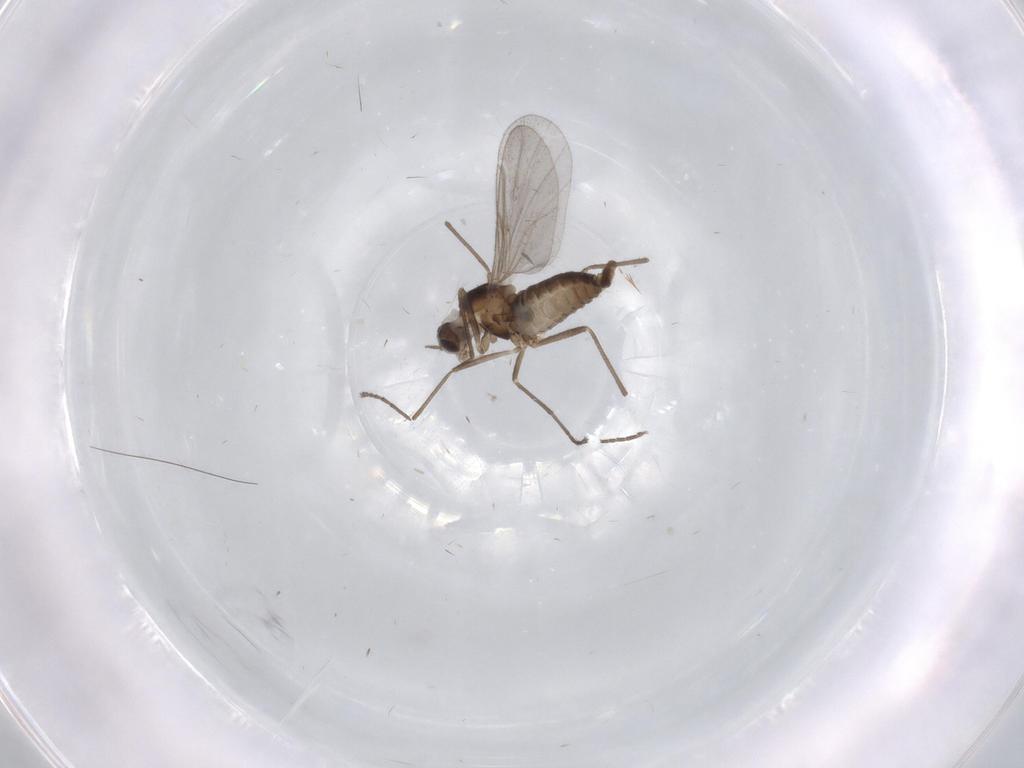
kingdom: Animalia
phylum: Arthropoda
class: Insecta
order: Diptera
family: Sciaridae
